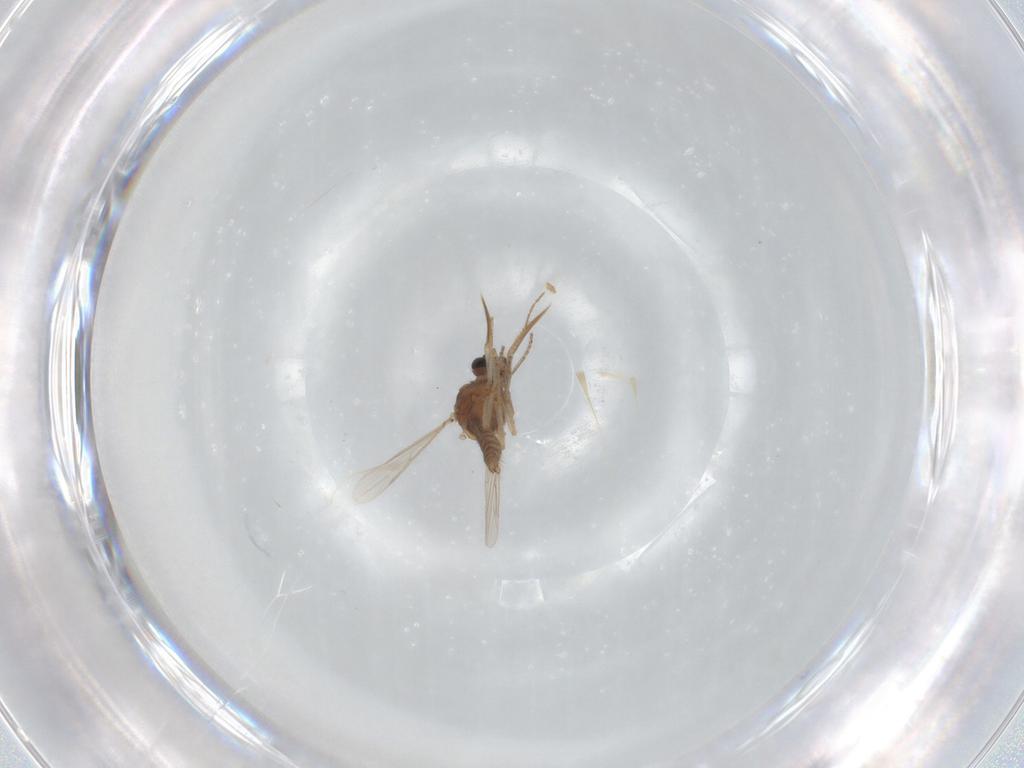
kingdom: Animalia
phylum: Arthropoda
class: Insecta
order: Diptera
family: Ceratopogonidae
